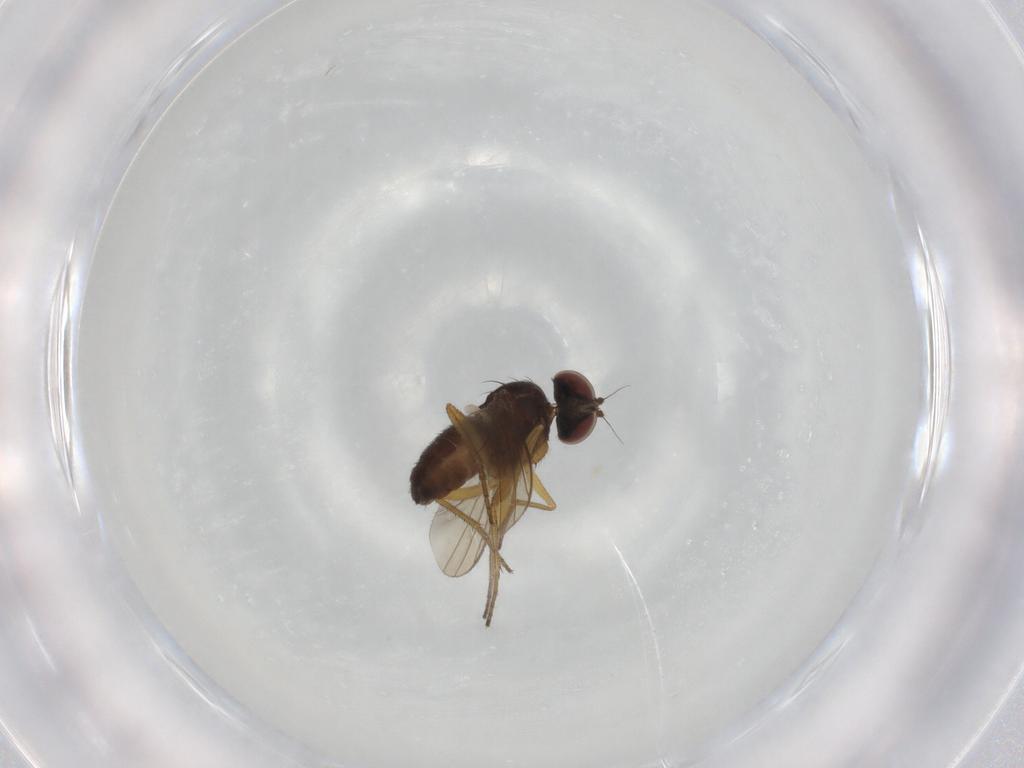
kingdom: Animalia
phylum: Arthropoda
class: Insecta
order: Diptera
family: Dolichopodidae
